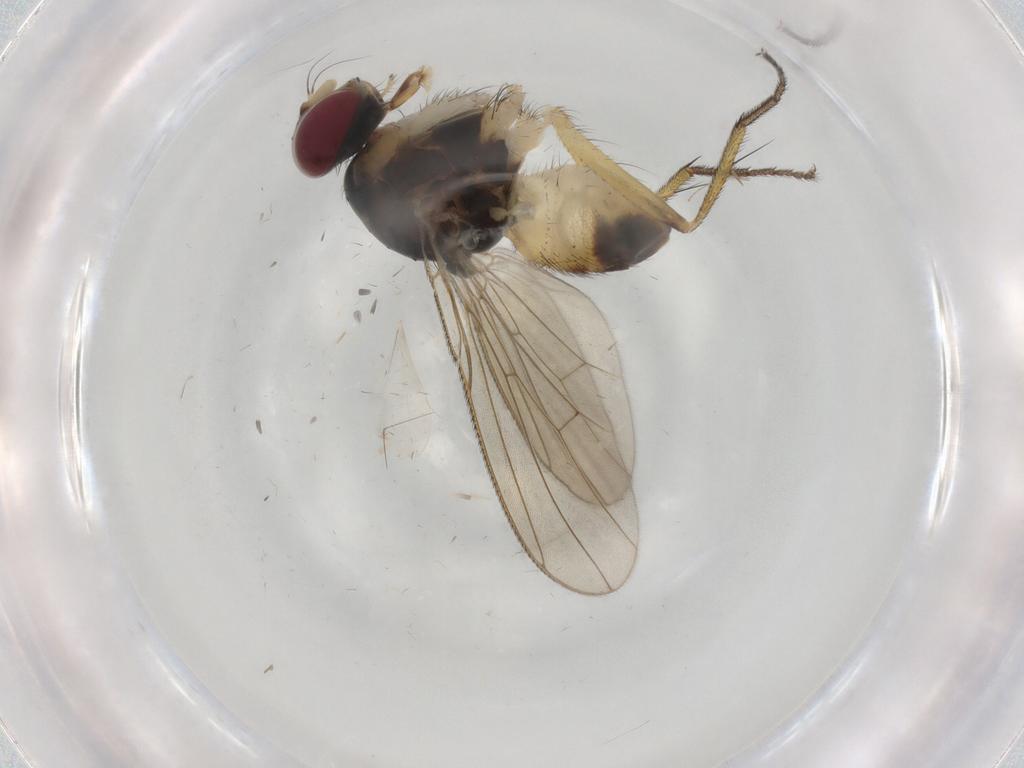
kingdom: Animalia
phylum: Arthropoda
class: Insecta
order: Diptera
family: Muscidae
